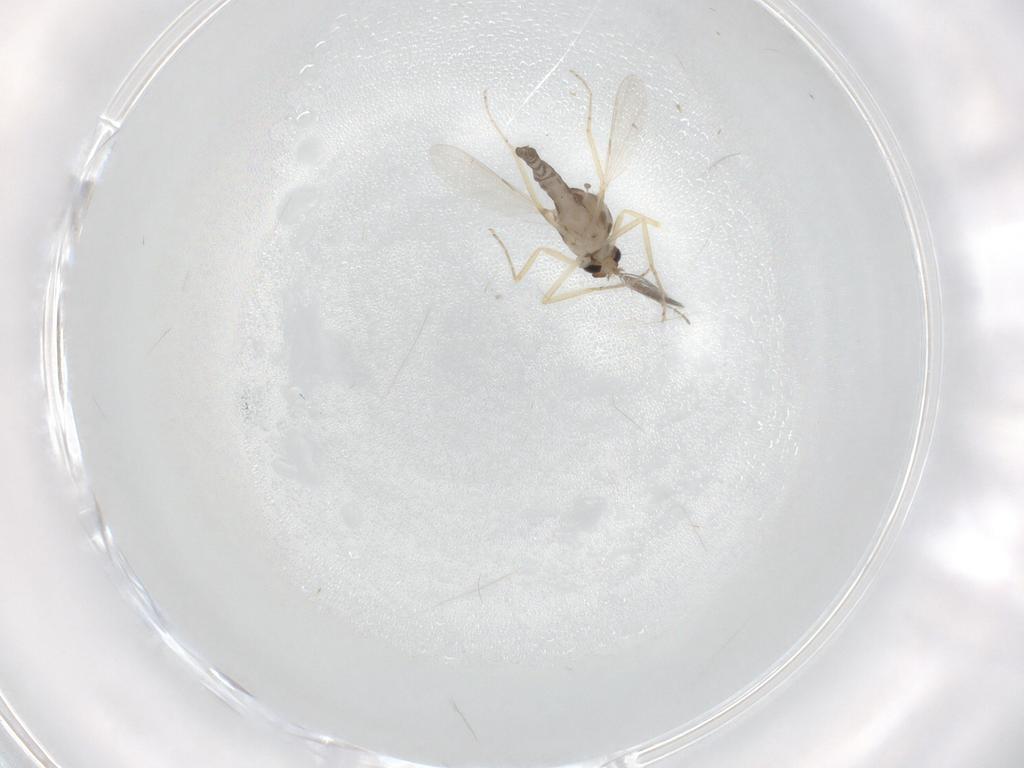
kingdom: Animalia
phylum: Arthropoda
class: Insecta
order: Diptera
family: Ceratopogonidae
